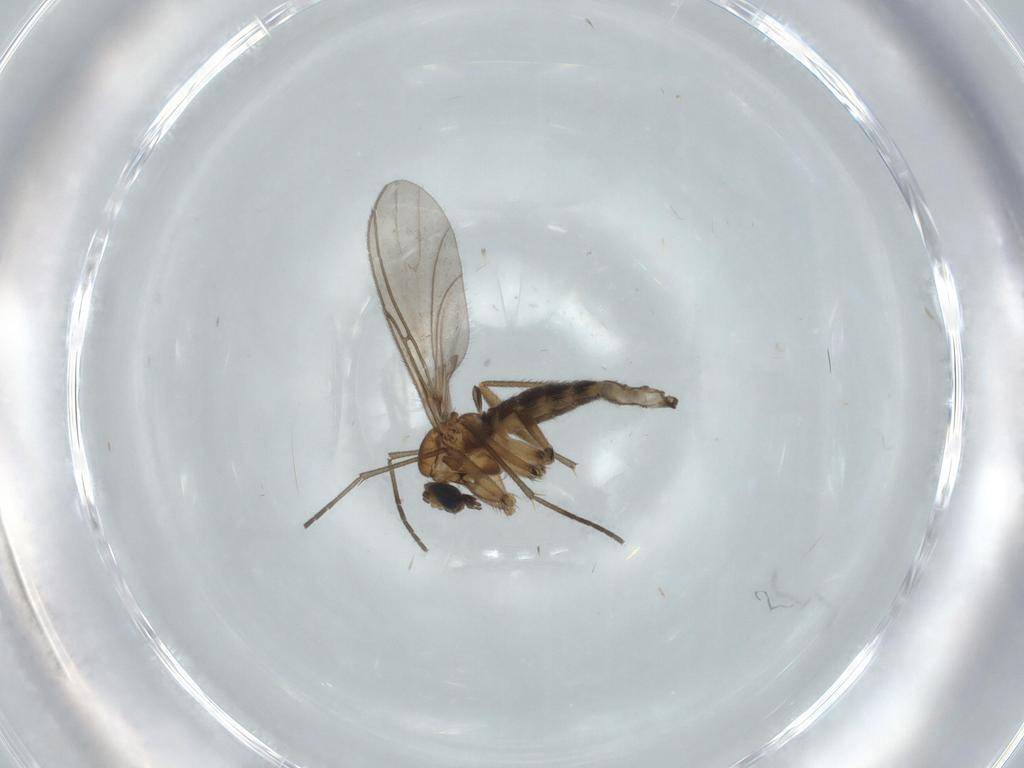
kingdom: Animalia
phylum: Arthropoda
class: Insecta
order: Diptera
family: Sciaridae
